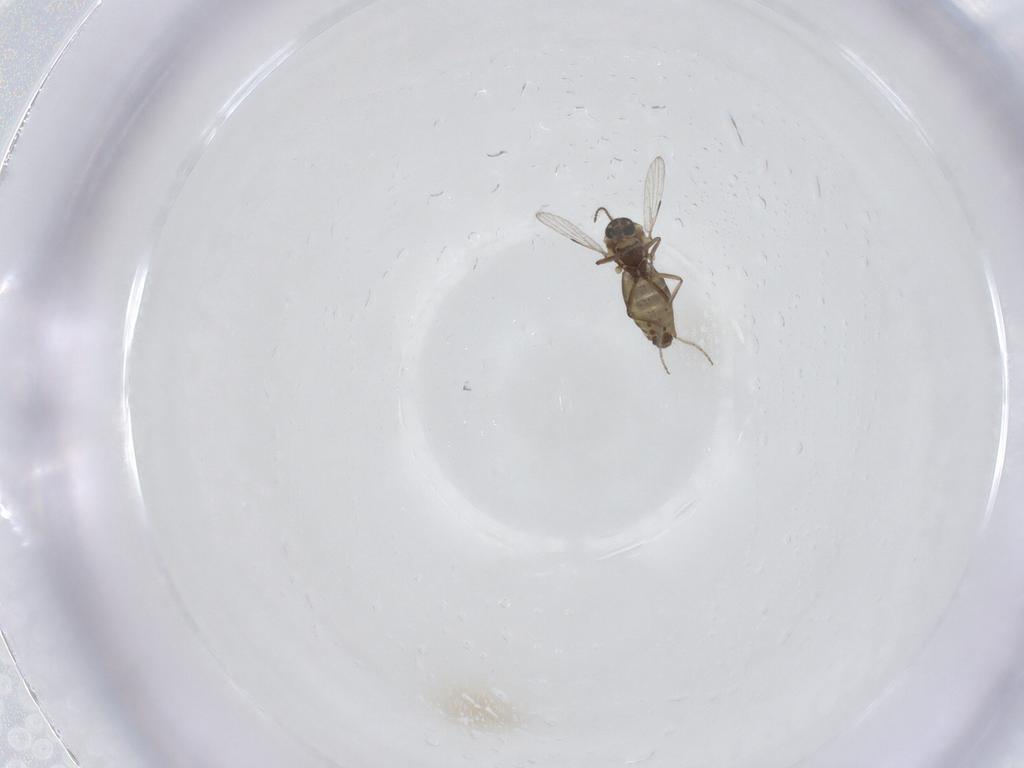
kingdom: Animalia
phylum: Arthropoda
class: Insecta
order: Diptera
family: Ceratopogonidae
